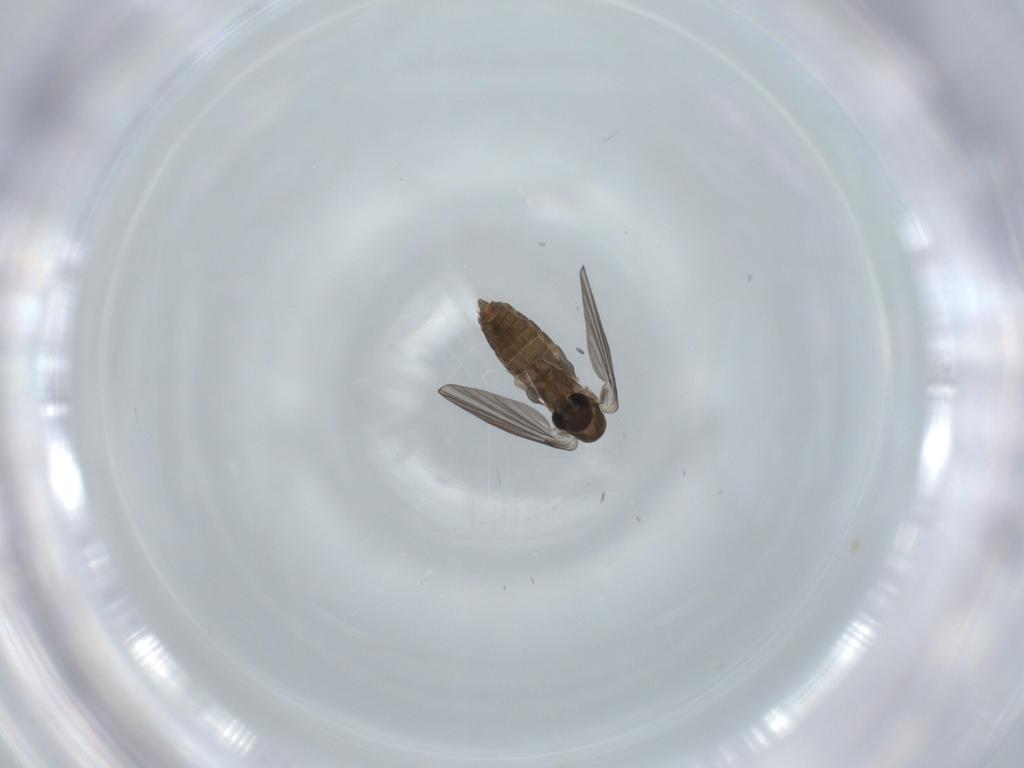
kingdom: Animalia
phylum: Arthropoda
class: Insecta
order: Diptera
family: Psychodidae
